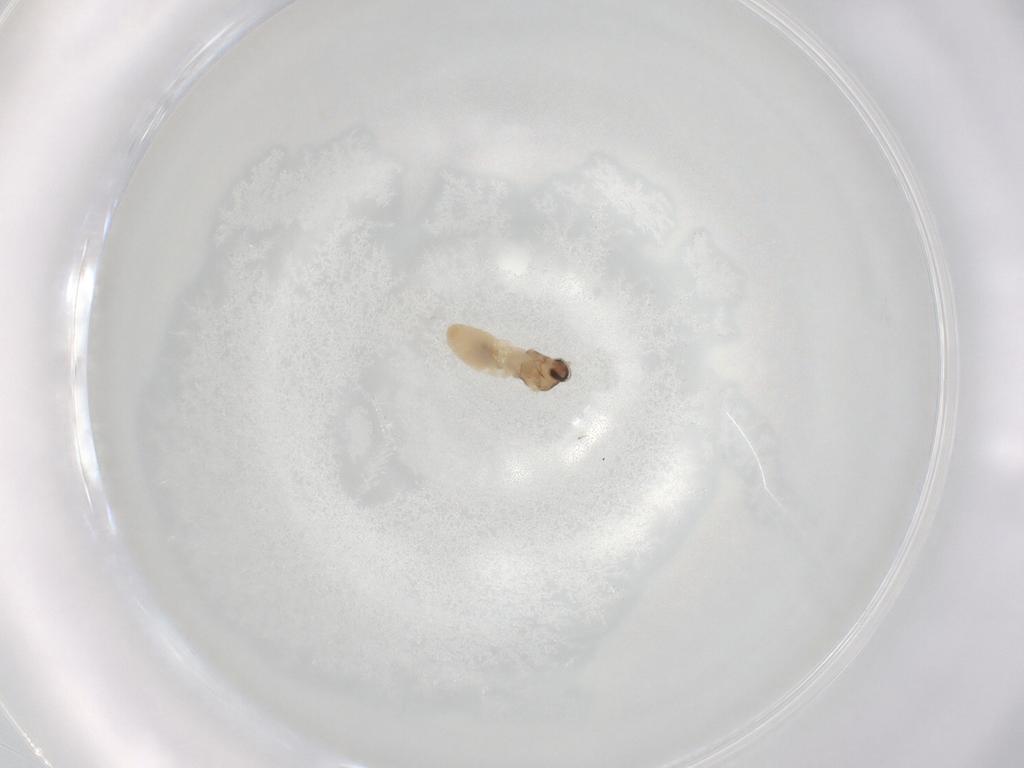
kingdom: Animalia
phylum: Arthropoda
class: Insecta
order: Diptera
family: Cecidomyiidae
